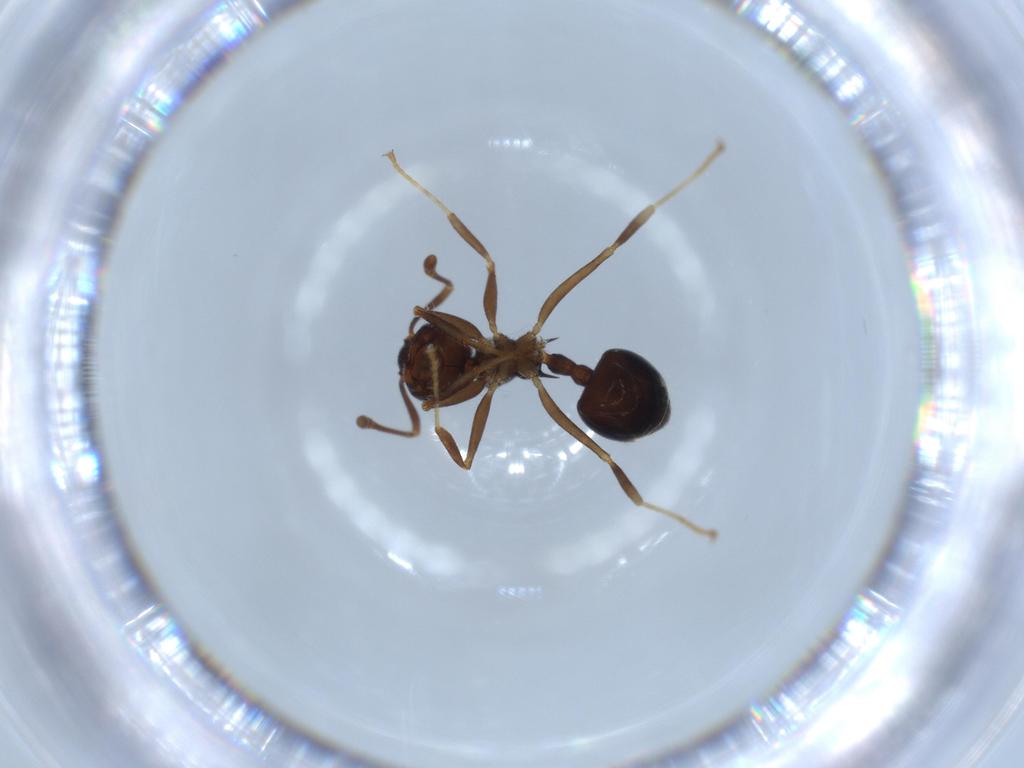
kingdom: Animalia
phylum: Arthropoda
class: Insecta
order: Hymenoptera
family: Formicidae
